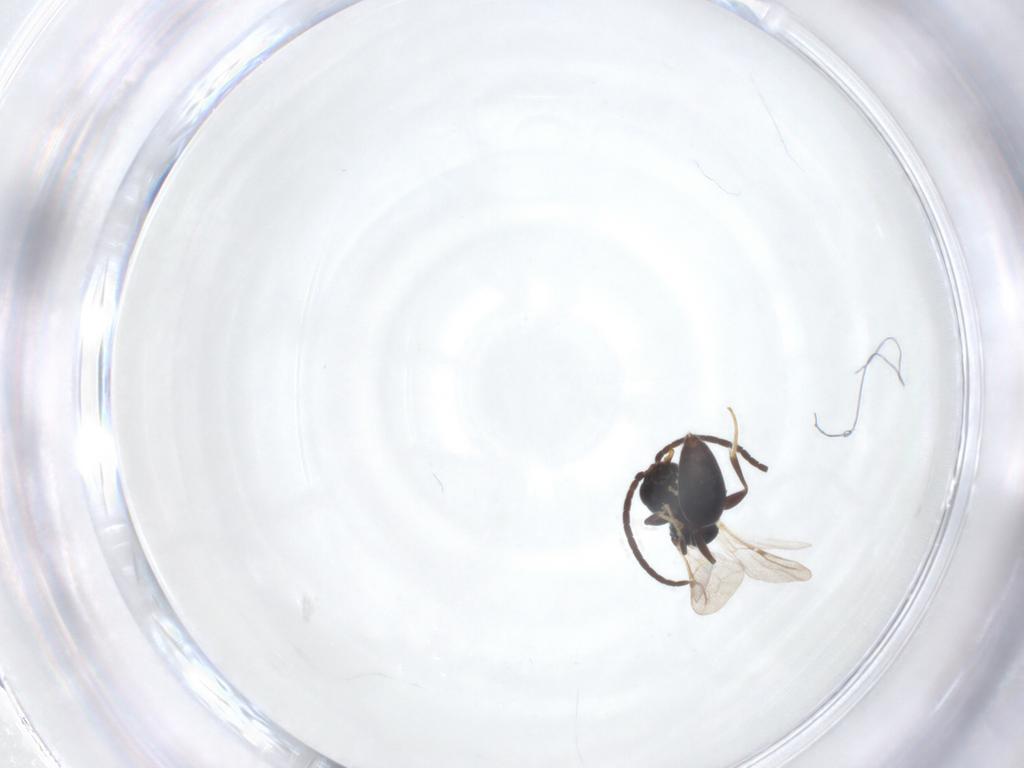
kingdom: Animalia
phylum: Arthropoda
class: Insecta
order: Hymenoptera
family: Bethylidae
